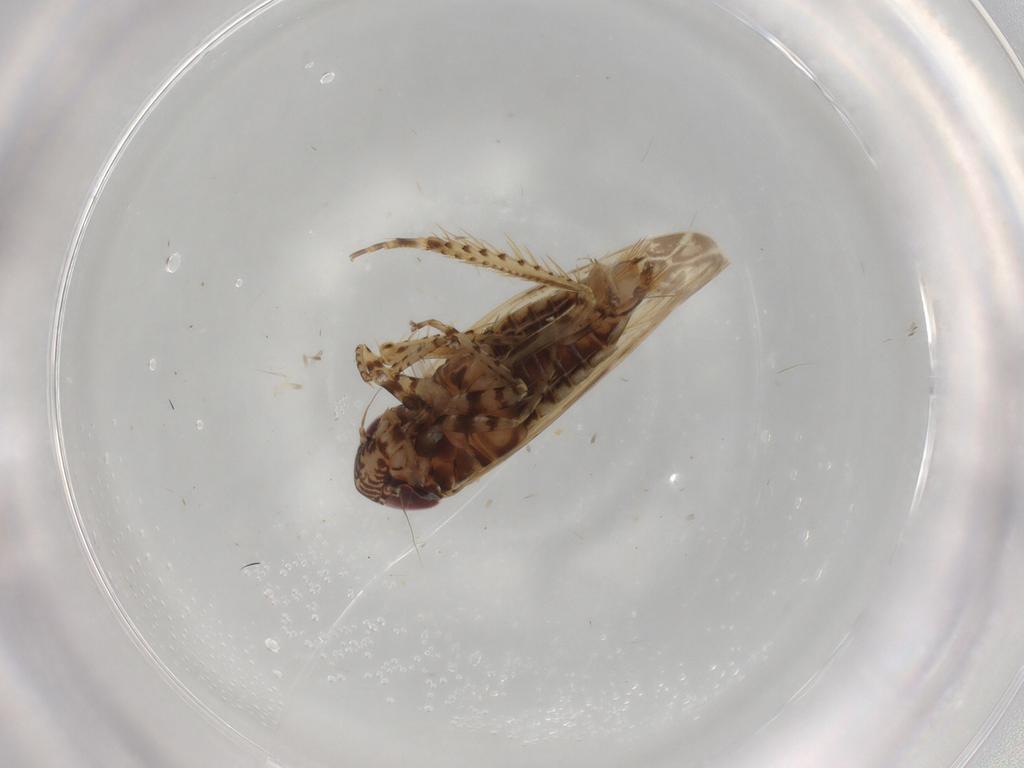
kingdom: Animalia
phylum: Arthropoda
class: Insecta
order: Hemiptera
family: Cicadellidae
